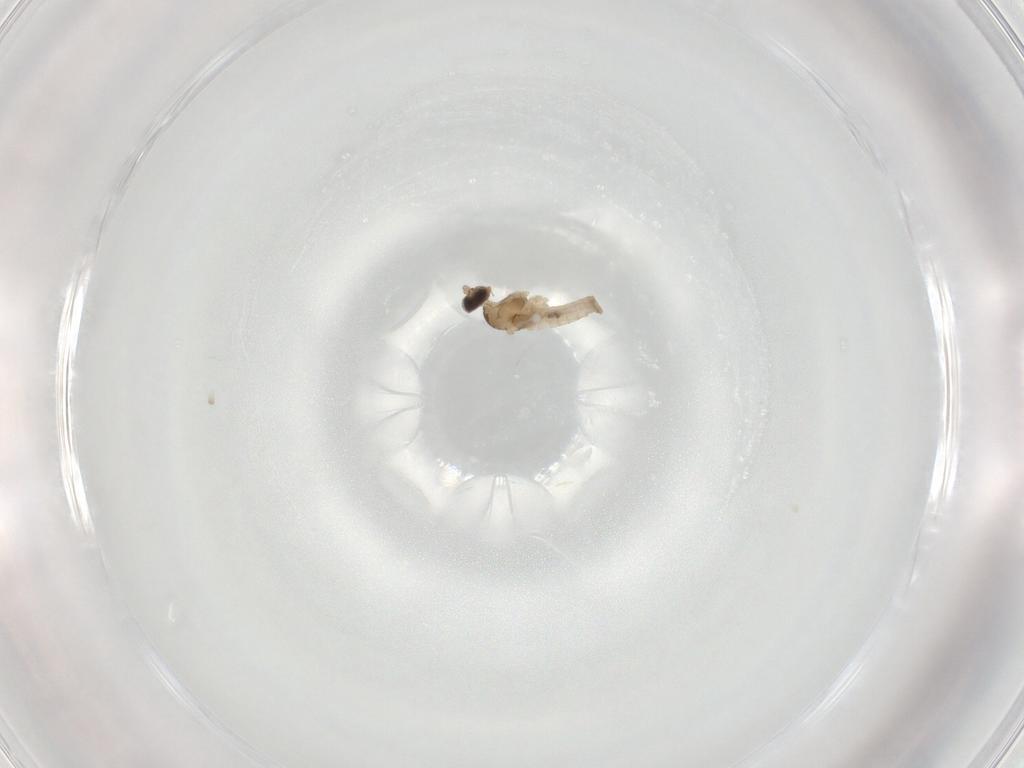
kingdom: Animalia
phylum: Arthropoda
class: Insecta
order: Diptera
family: Cecidomyiidae
